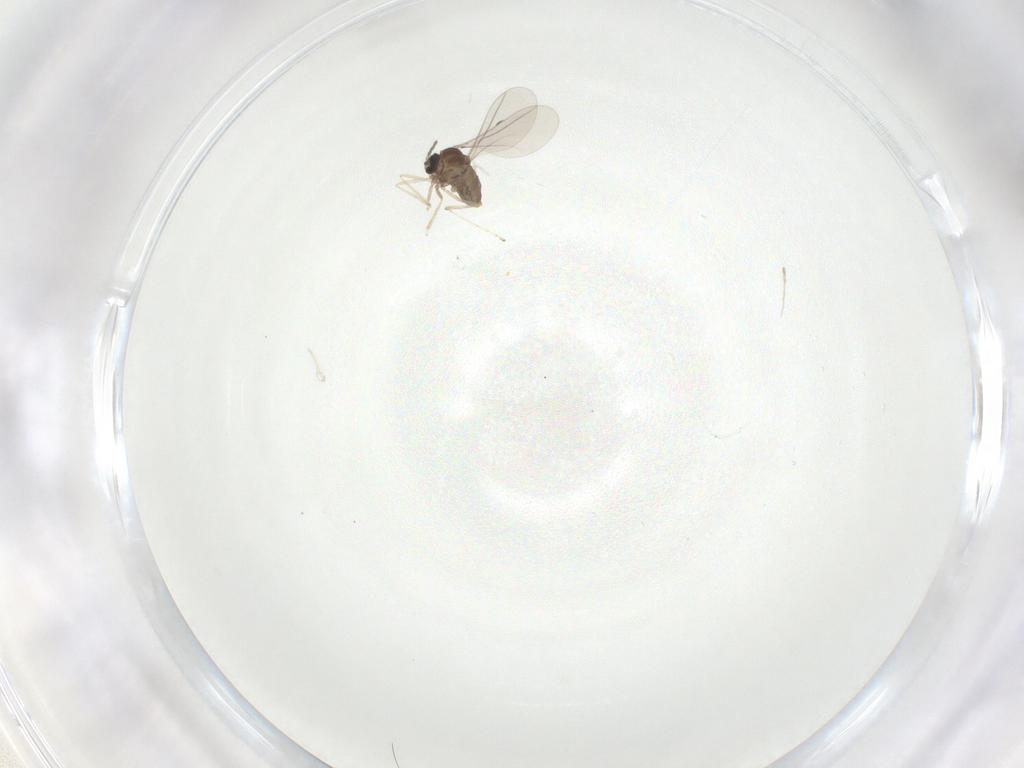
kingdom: Animalia
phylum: Arthropoda
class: Insecta
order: Diptera
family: Cecidomyiidae
